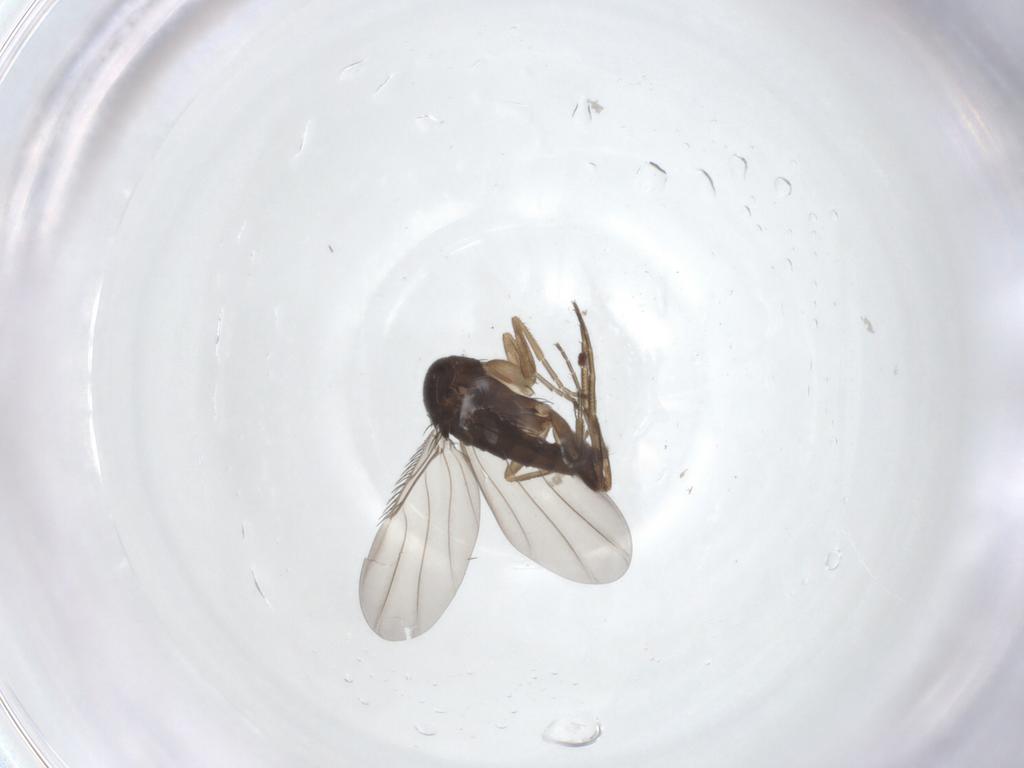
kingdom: Animalia
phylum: Arthropoda
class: Insecta
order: Diptera
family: Phoridae
